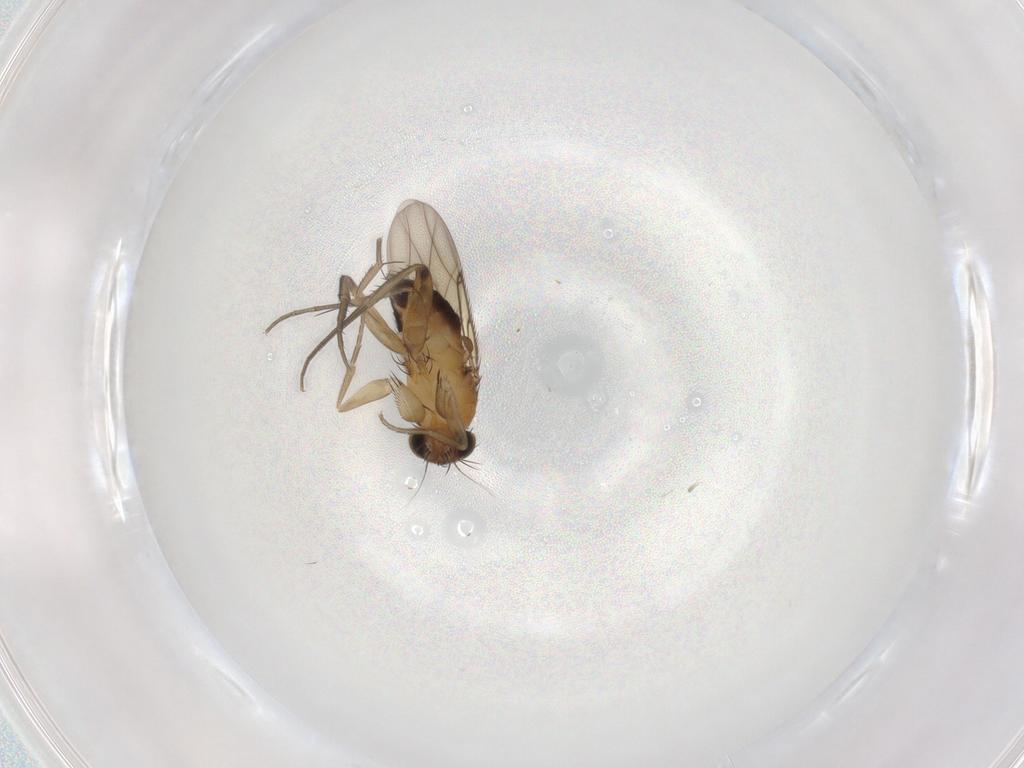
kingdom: Animalia
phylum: Arthropoda
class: Insecta
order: Diptera
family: Phoridae
